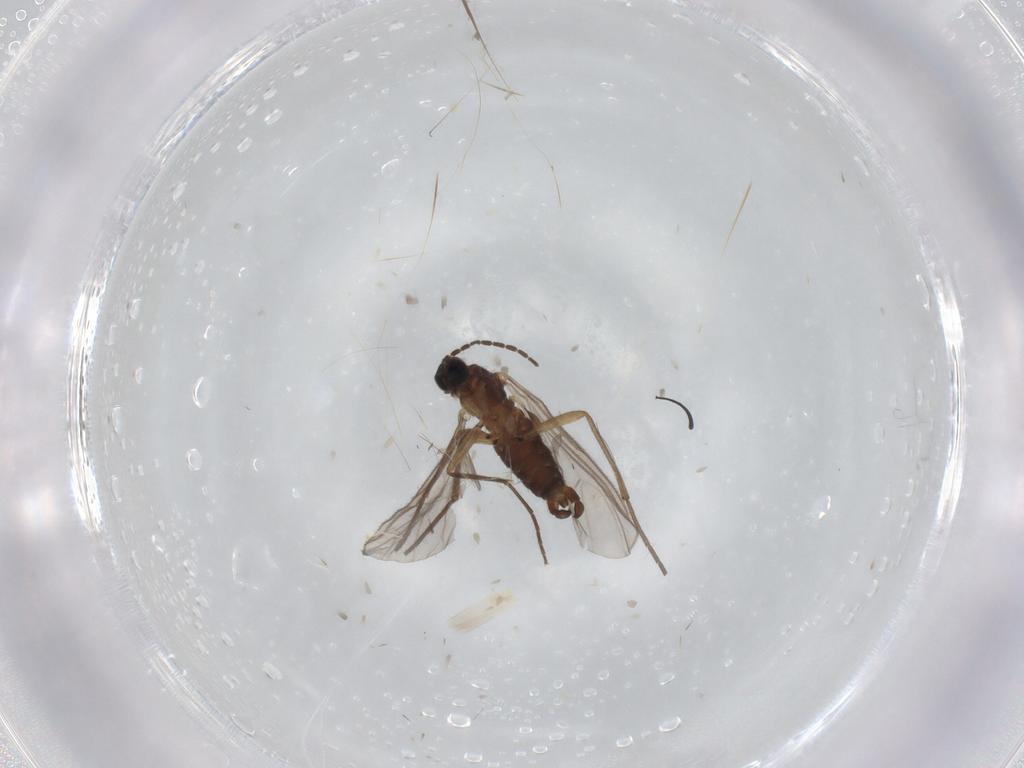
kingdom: Animalia
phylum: Arthropoda
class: Insecta
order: Diptera
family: Sciaridae
